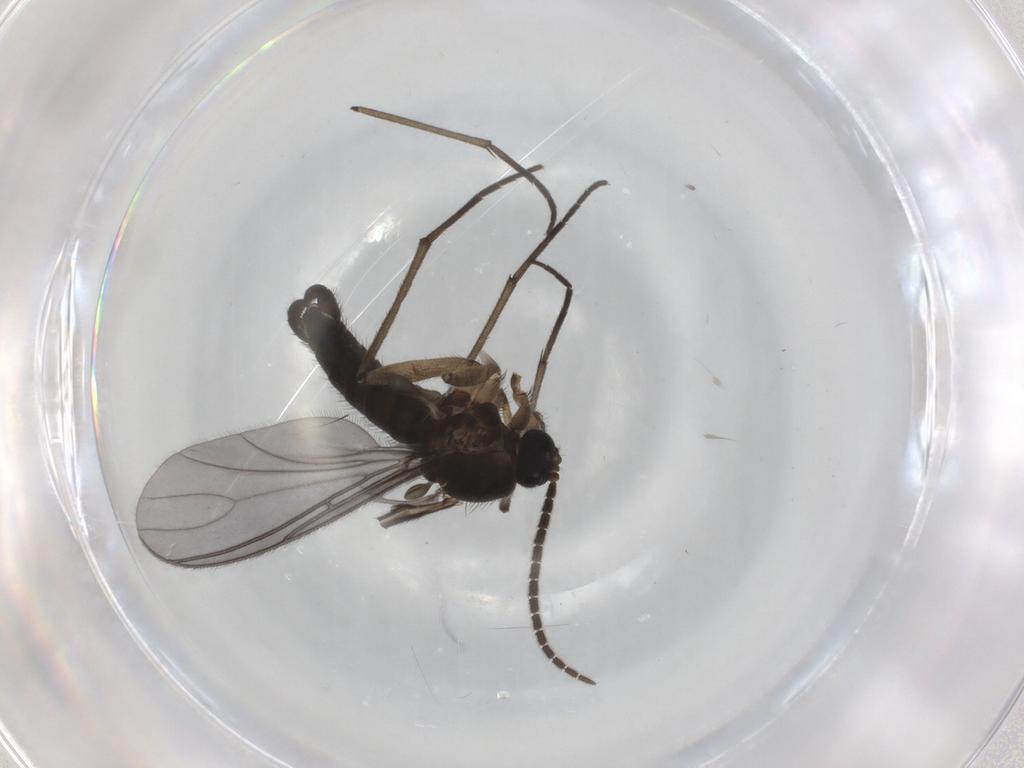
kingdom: Animalia
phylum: Arthropoda
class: Insecta
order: Diptera
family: Sciaridae
